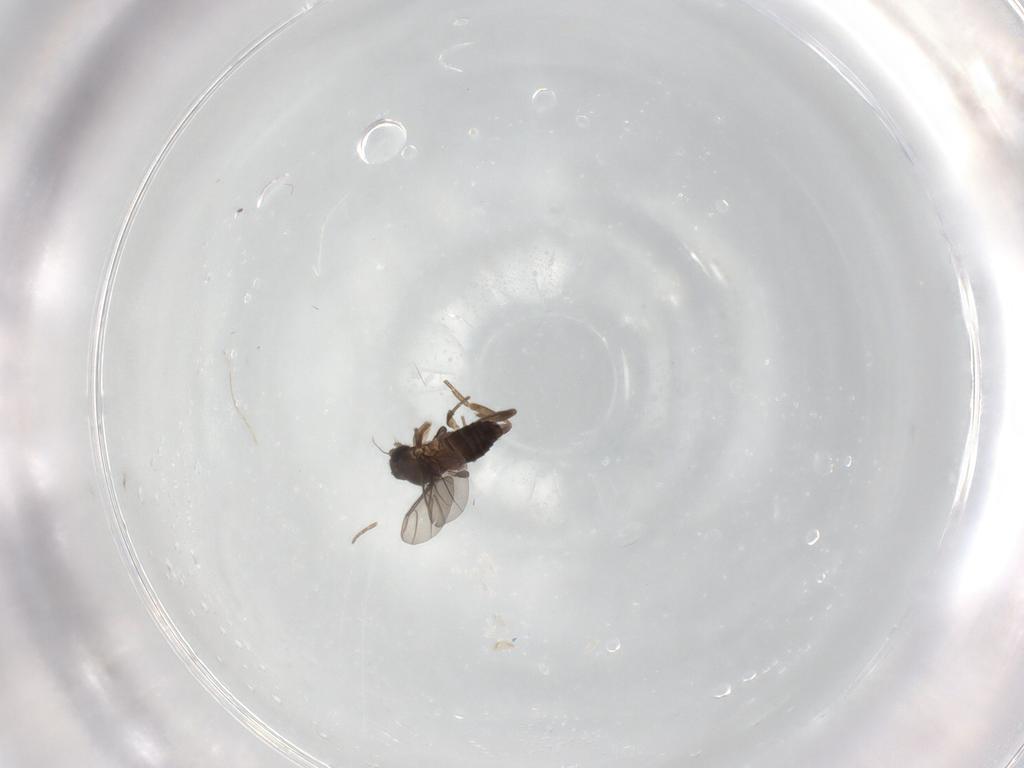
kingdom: Animalia
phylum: Arthropoda
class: Insecta
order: Diptera
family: Phoridae
